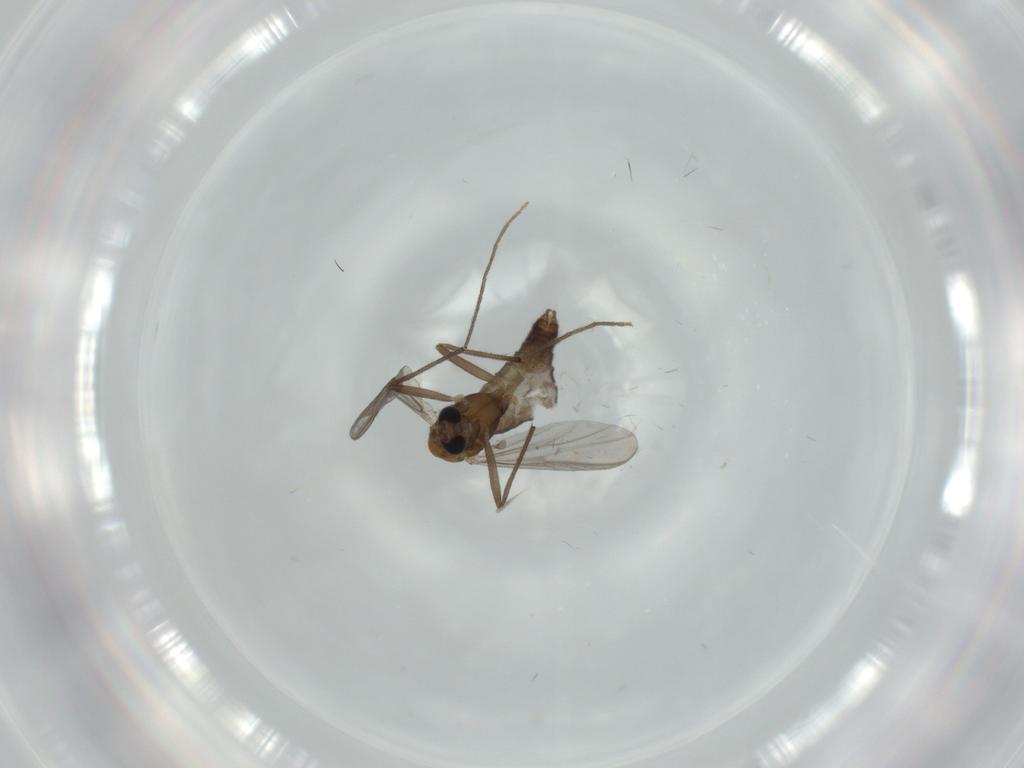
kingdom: Animalia
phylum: Arthropoda
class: Insecta
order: Diptera
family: Chironomidae
